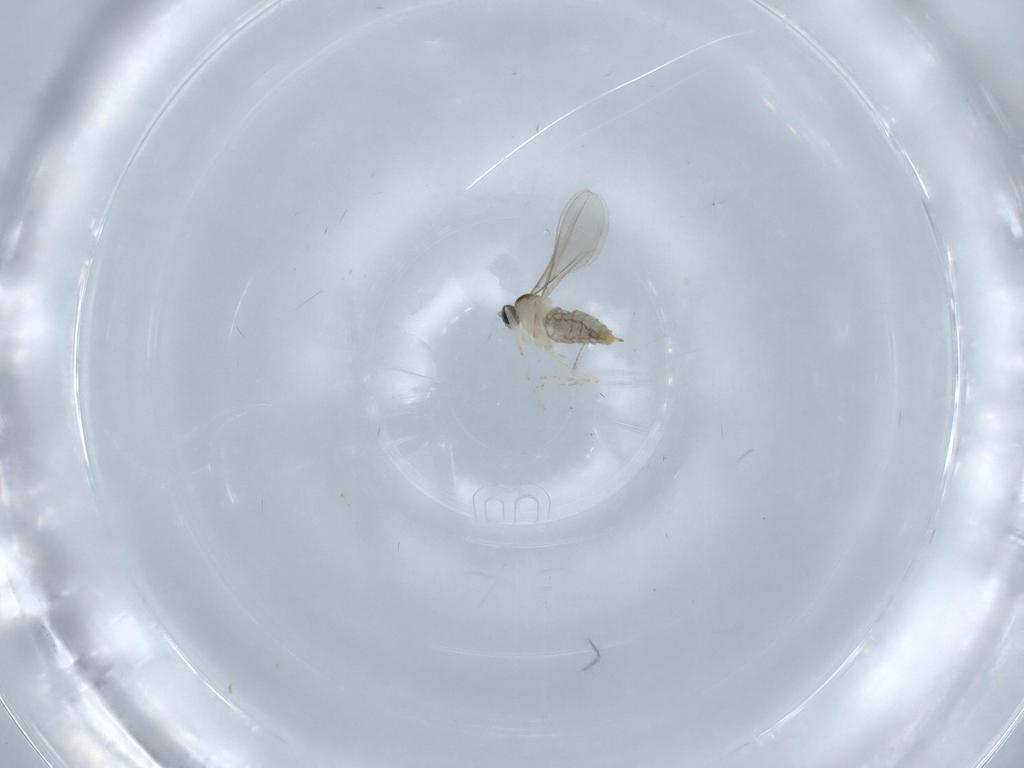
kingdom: Animalia
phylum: Arthropoda
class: Insecta
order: Diptera
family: Chironomidae
